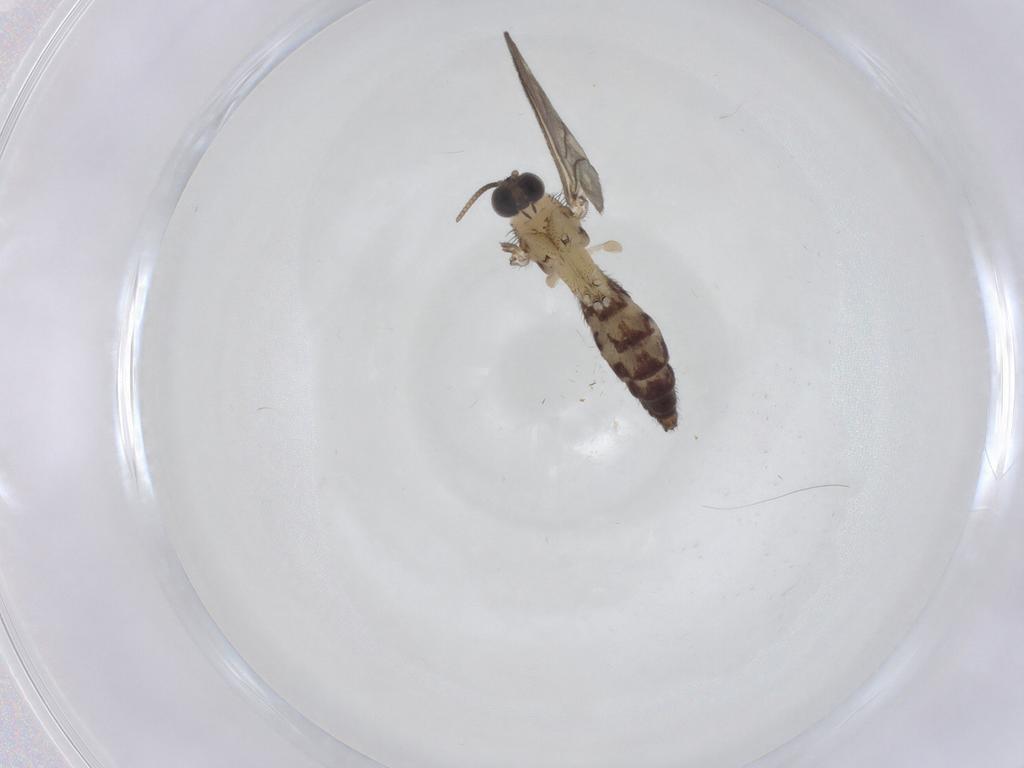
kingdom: Animalia
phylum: Arthropoda
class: Insecta
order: Diptera
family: Keroplatidae
